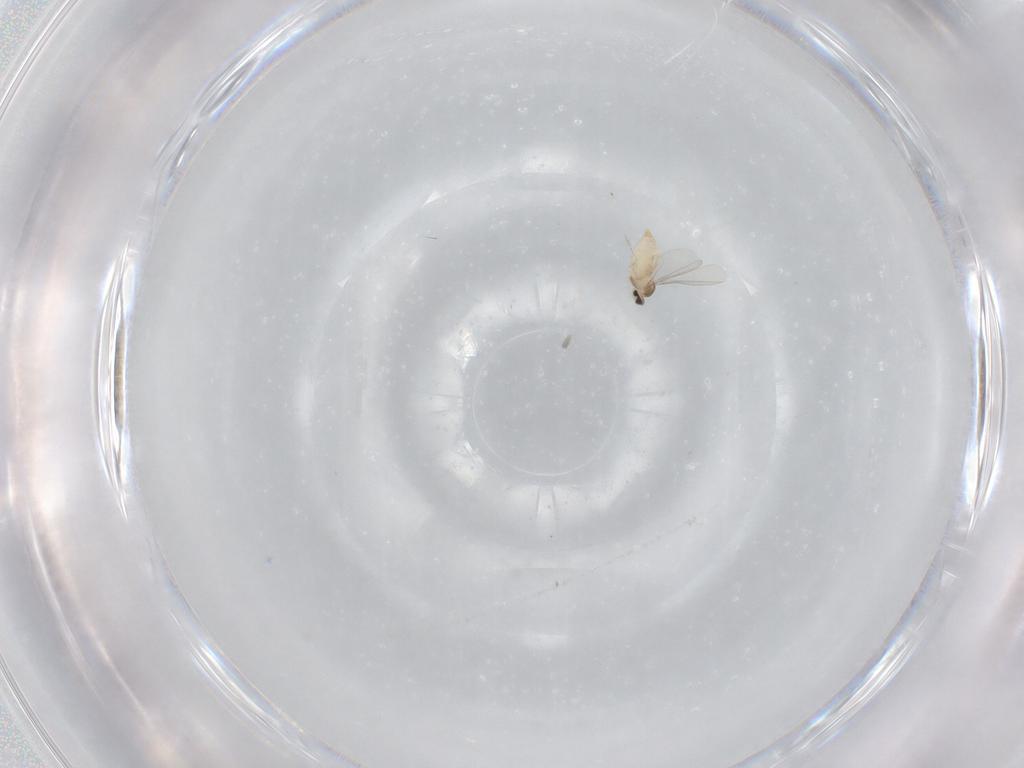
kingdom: Animalia
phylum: Arthropoda
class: Insecta
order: Diptera
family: Cecidomyiidae
